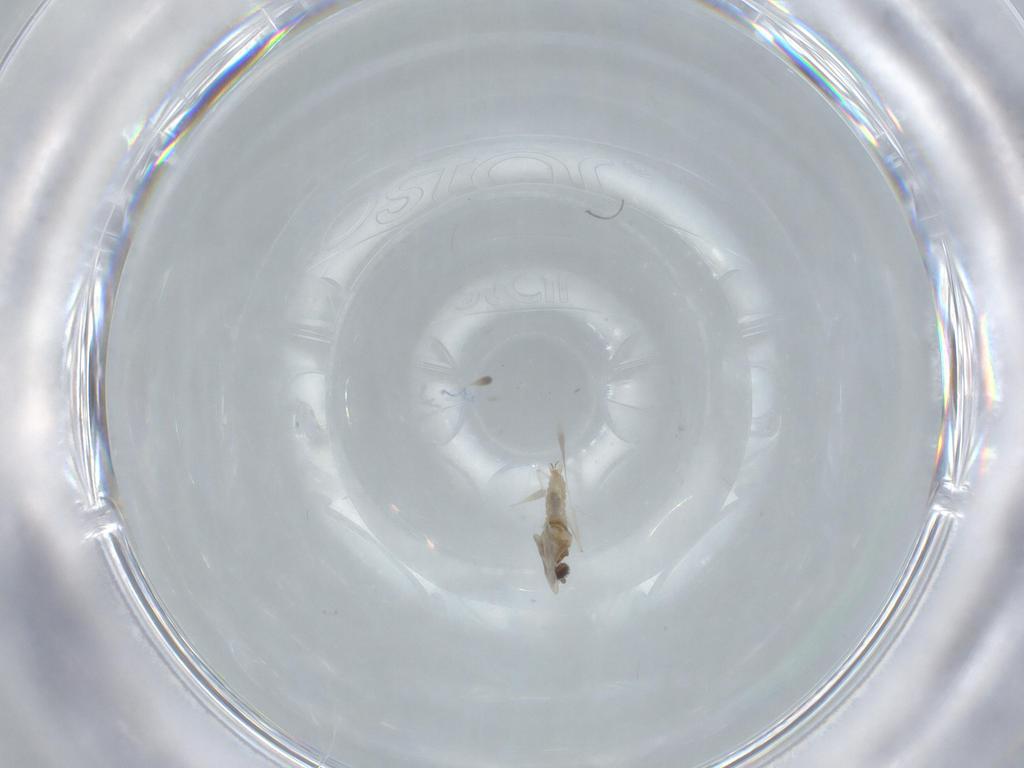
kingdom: Animalia
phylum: Arthropoda
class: Insecta
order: Diptera
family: Cecidomyiidae
